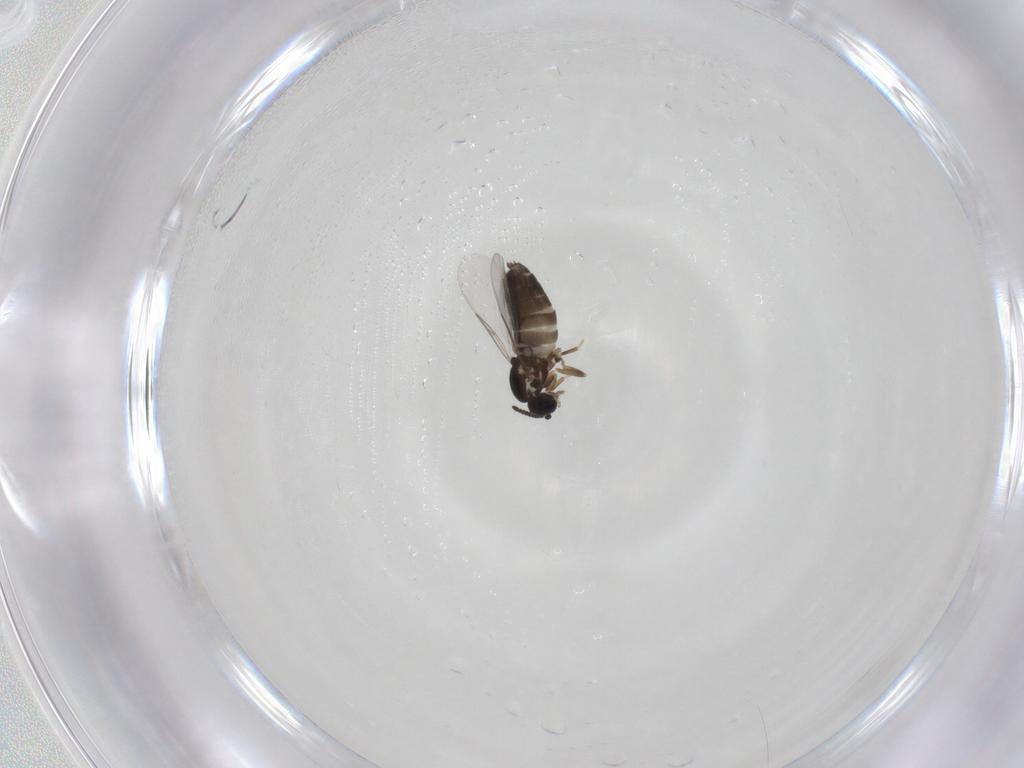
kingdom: Animalia
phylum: Arthropoda
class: Insecta
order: Diptera
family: Scatopsidae
